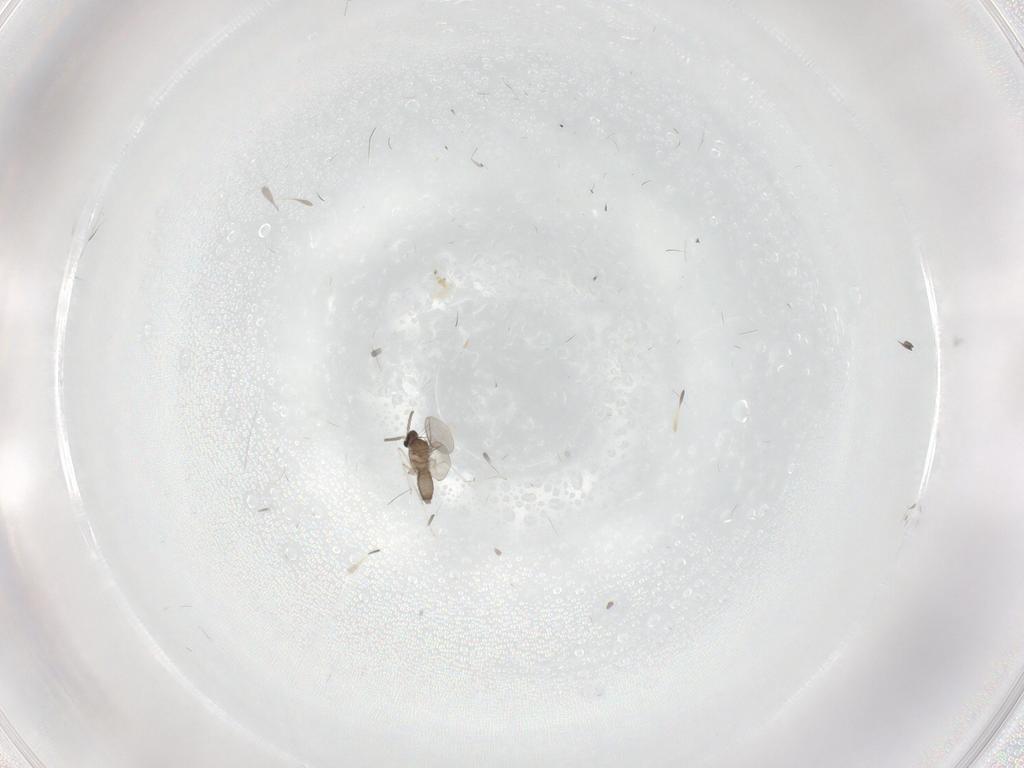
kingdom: Animalia
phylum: Arthropoda
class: Insecta
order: Diptera
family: Cecidomyiidae
